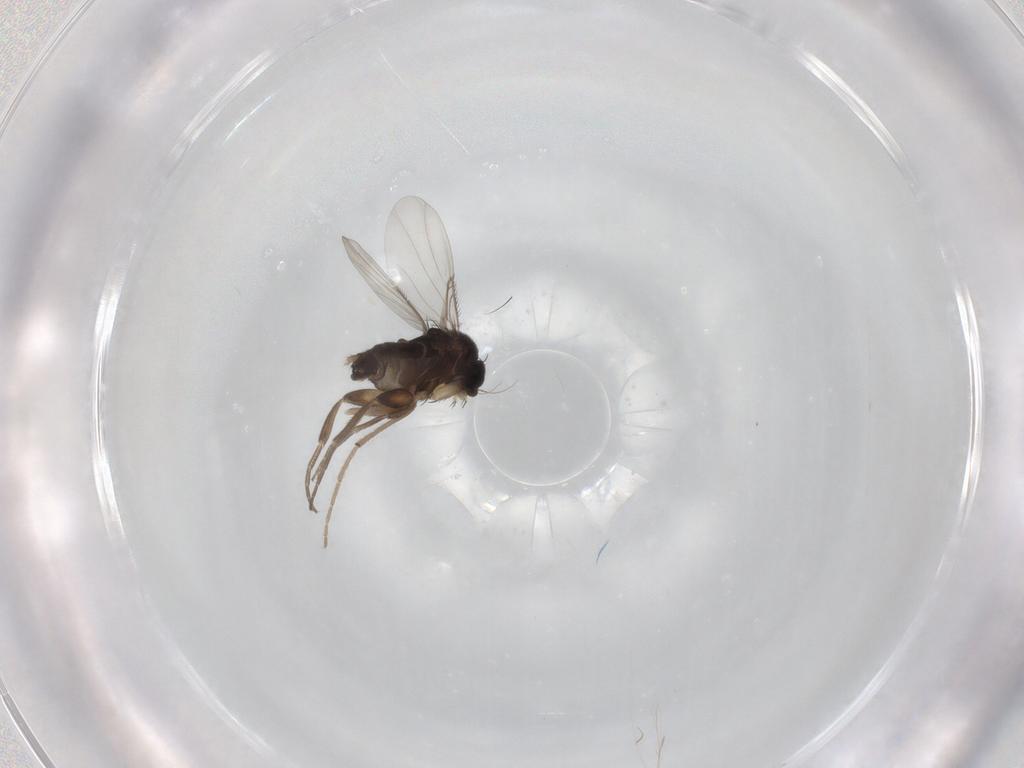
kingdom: Animalia
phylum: Arthropoda
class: Insecta
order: Diptera
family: Phoridae
